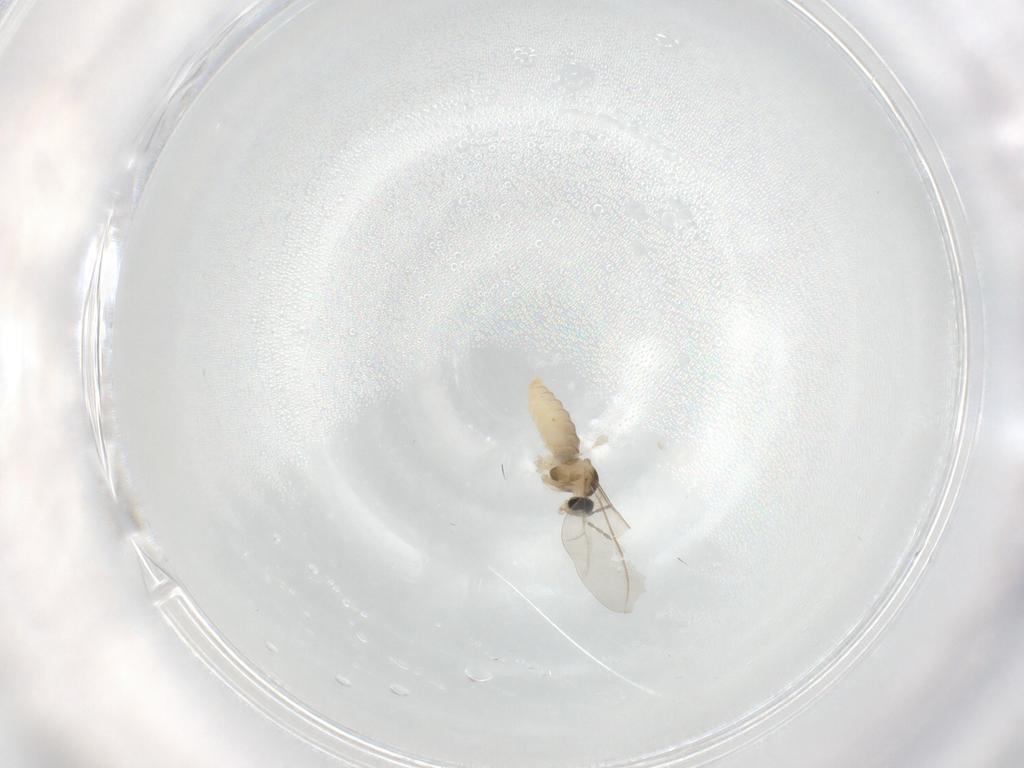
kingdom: Animalia
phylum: Arthropoda
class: Insecta
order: Diptera
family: Cecidomyiidae
